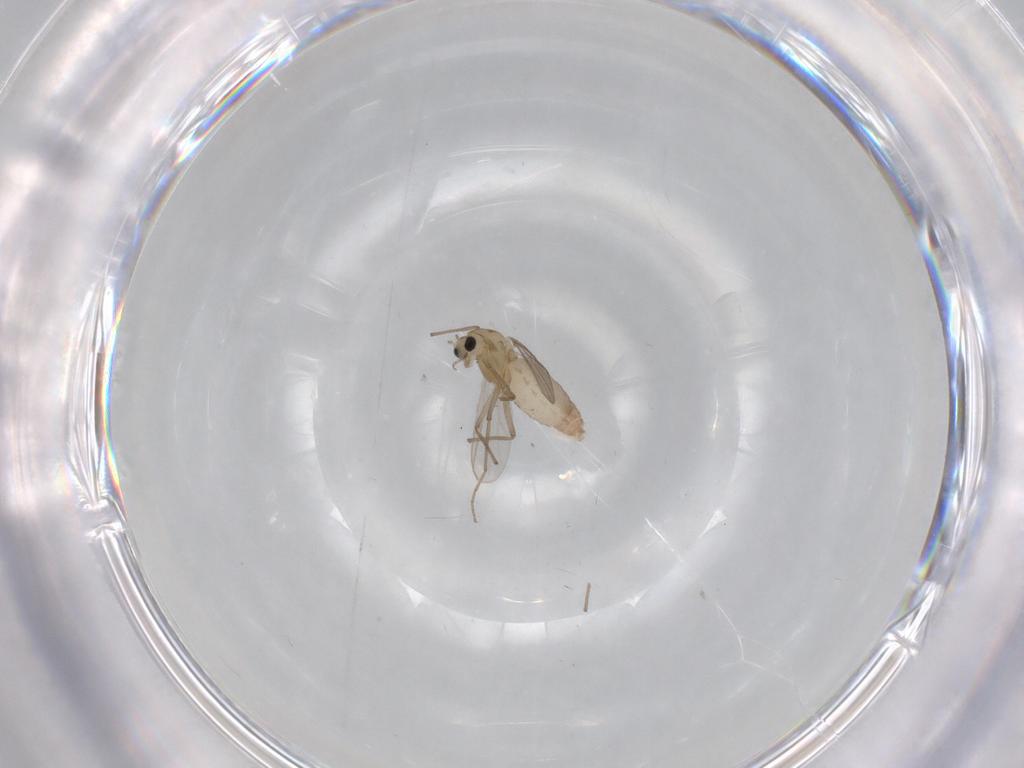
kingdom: Animalia
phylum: Arthropoda
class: Insecta
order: Diptera
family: Chironomidae
